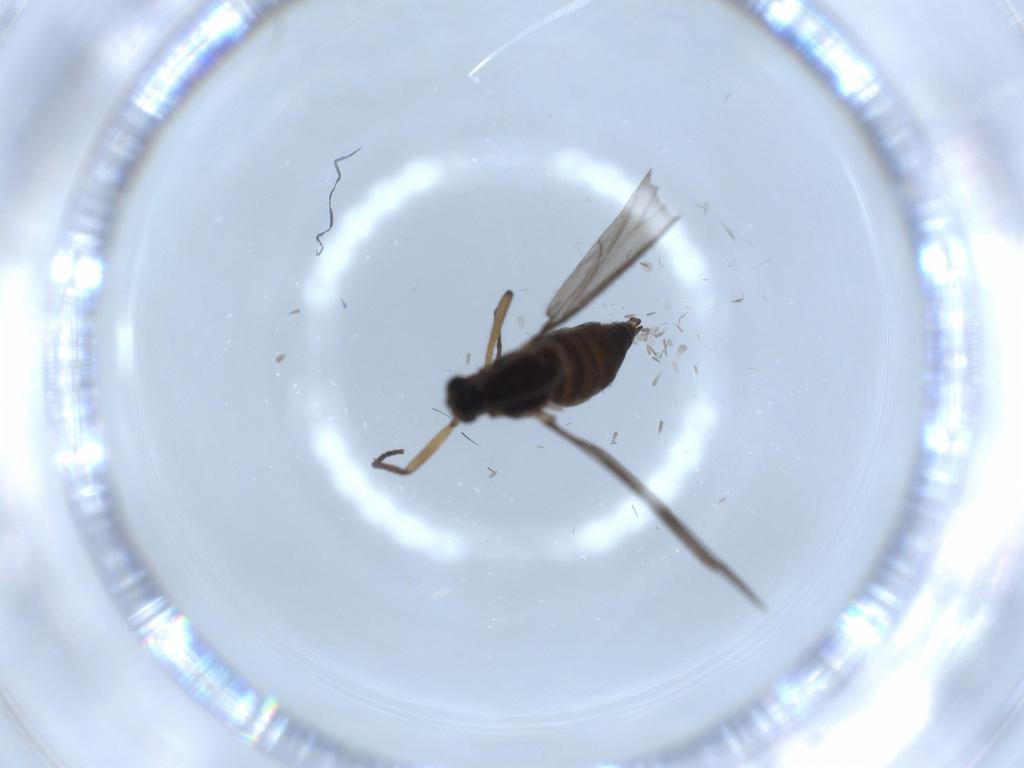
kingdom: Animalia
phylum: Arthropoda
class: Insecta
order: Diptera
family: Sciaridae
